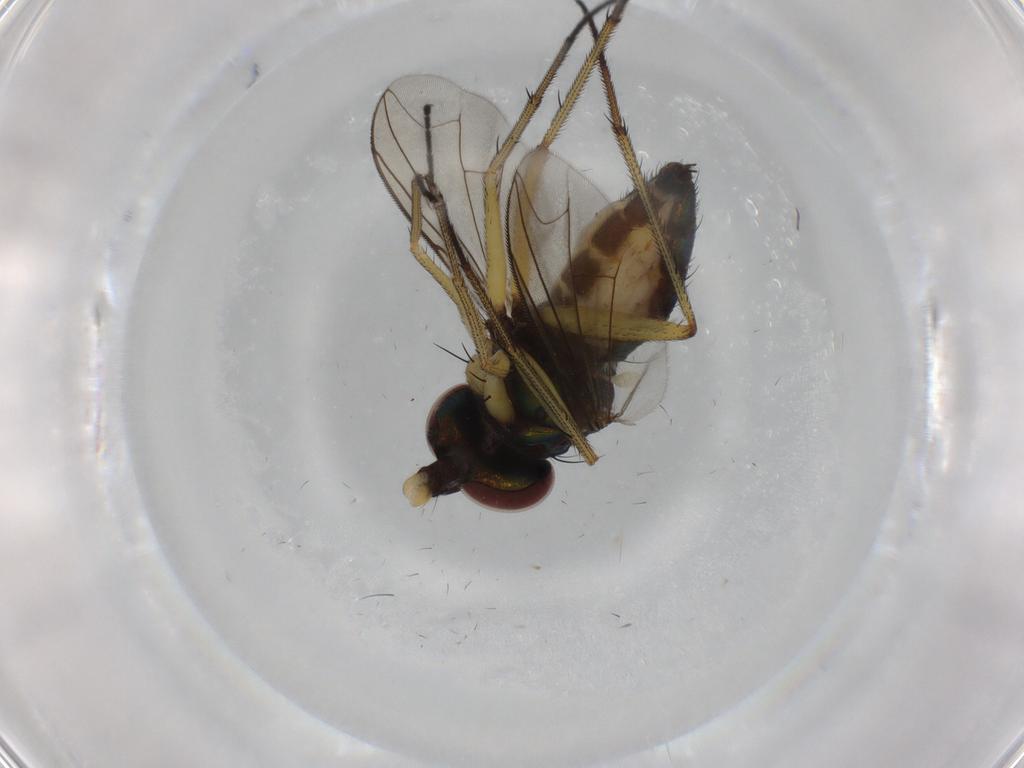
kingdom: Animalia
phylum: Arthropoda
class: Insecta
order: Diptera
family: Dolichopodidae
